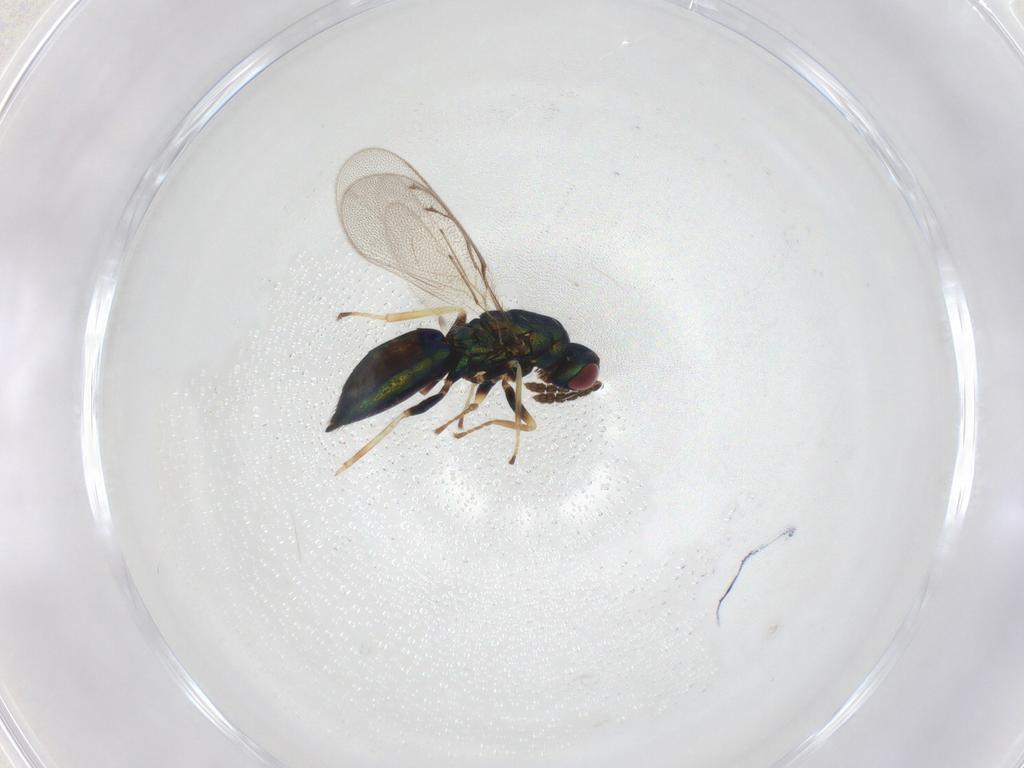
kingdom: Animalia
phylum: Arthropoda
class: Insecta
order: Hymenoptera
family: Eulophidae
